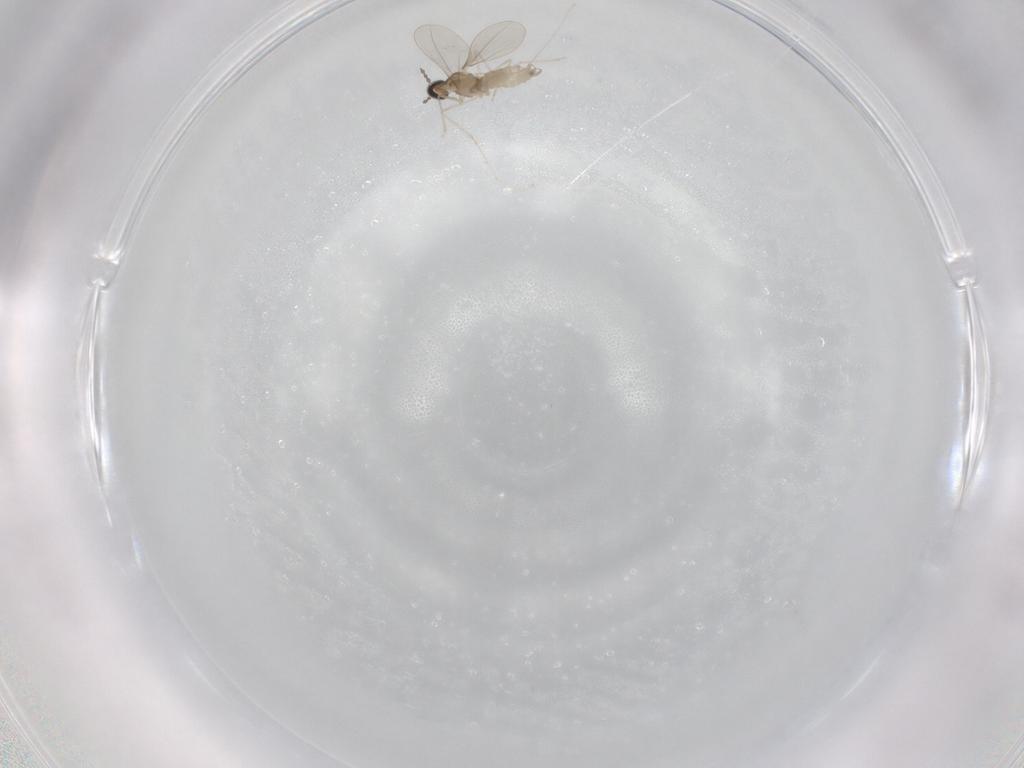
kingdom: Animalia
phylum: Arthropoda
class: Insecta
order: Diptera
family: Cecidomyiidae
